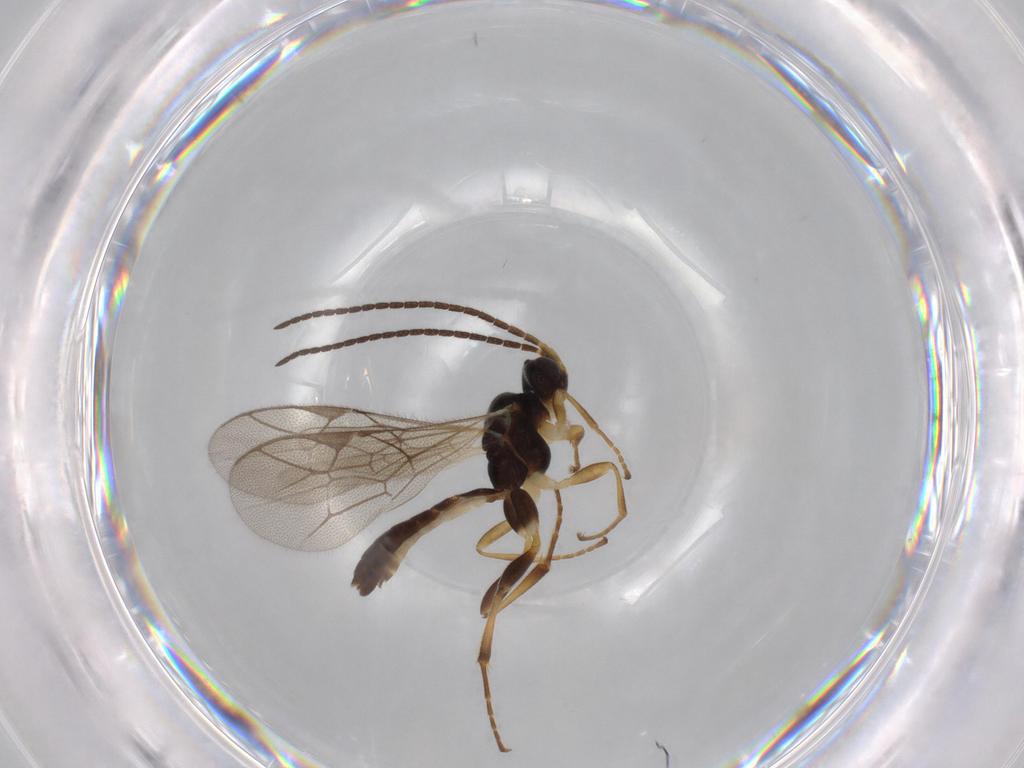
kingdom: Animalia
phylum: Arthropoda
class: Insecta
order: Hymenoptera
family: Ichneumonidae
